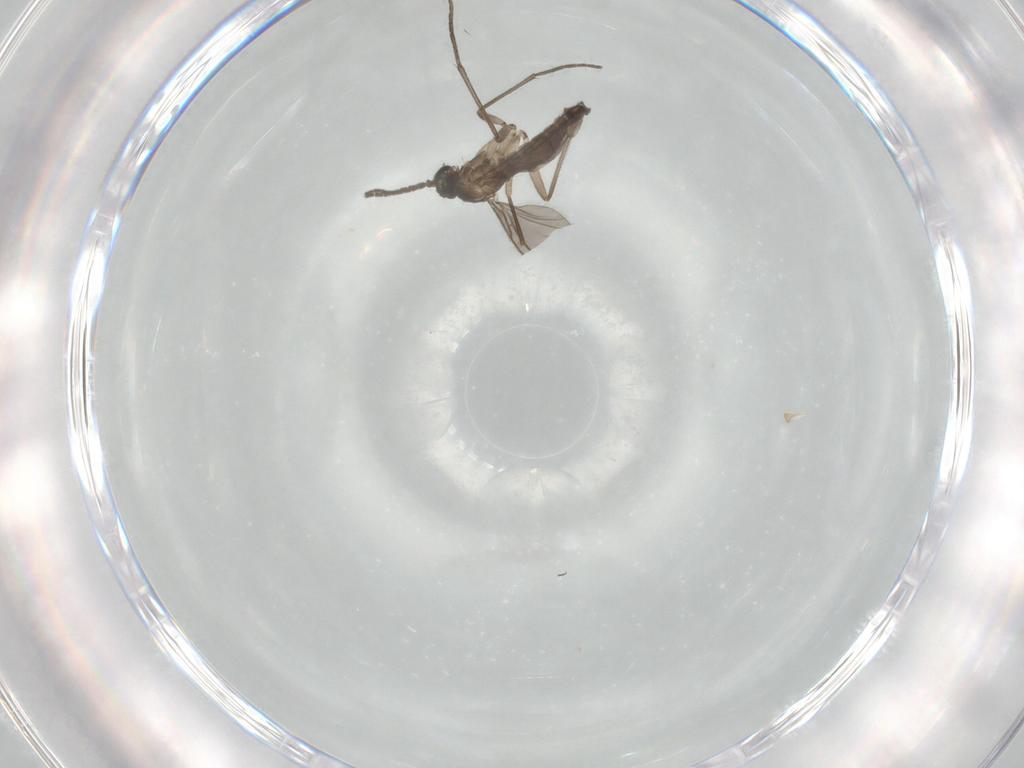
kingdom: Animalia
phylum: Arthropoda
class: Insecta
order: Diptera
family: Sciaridae
